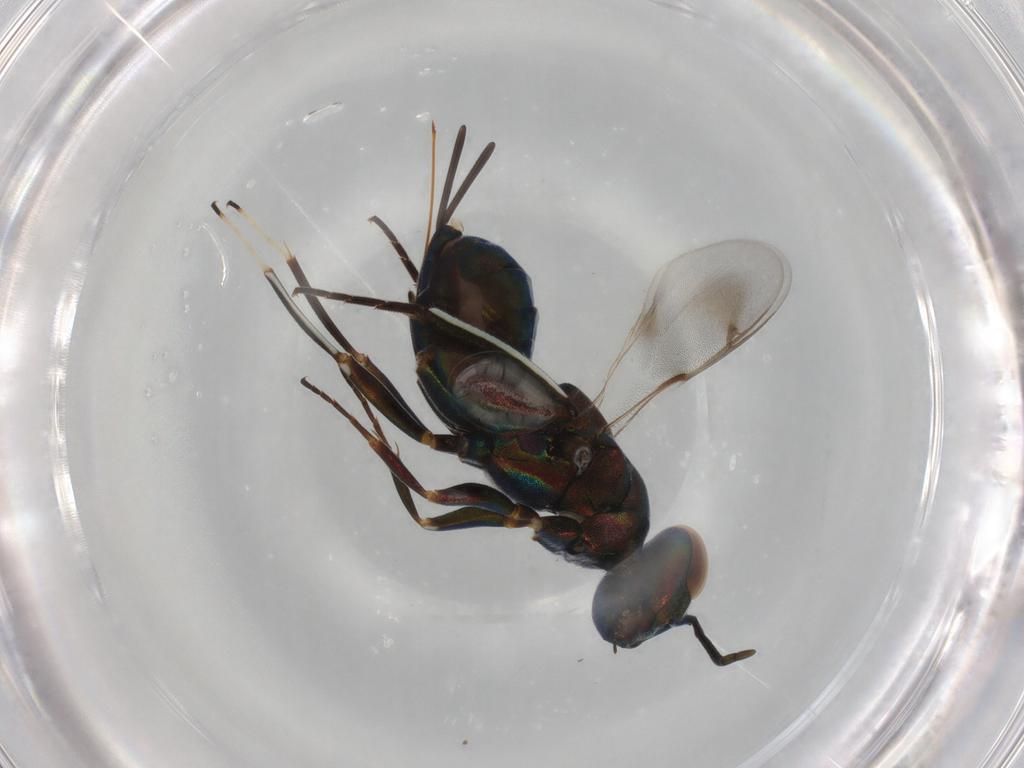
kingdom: Animalia
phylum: Arthropoda
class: Insecta
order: Hymenoptera
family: Eupelmidae
